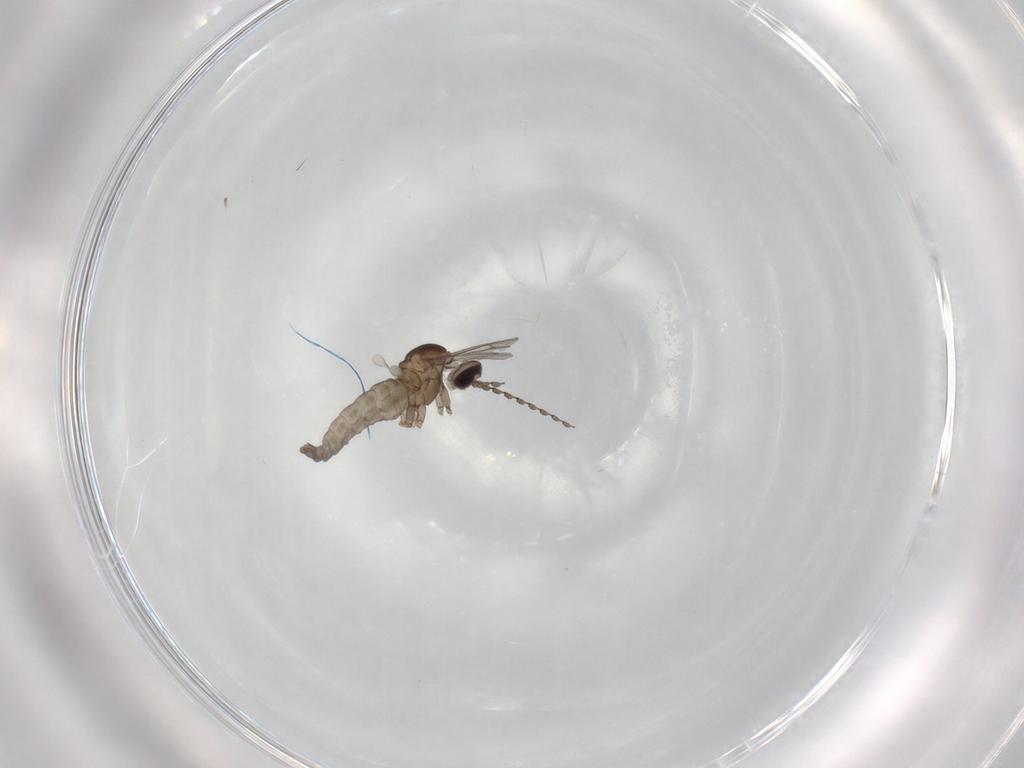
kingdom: Animalia
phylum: Arthropoda
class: Insecta
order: Diptera
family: Cecidomyiidae
